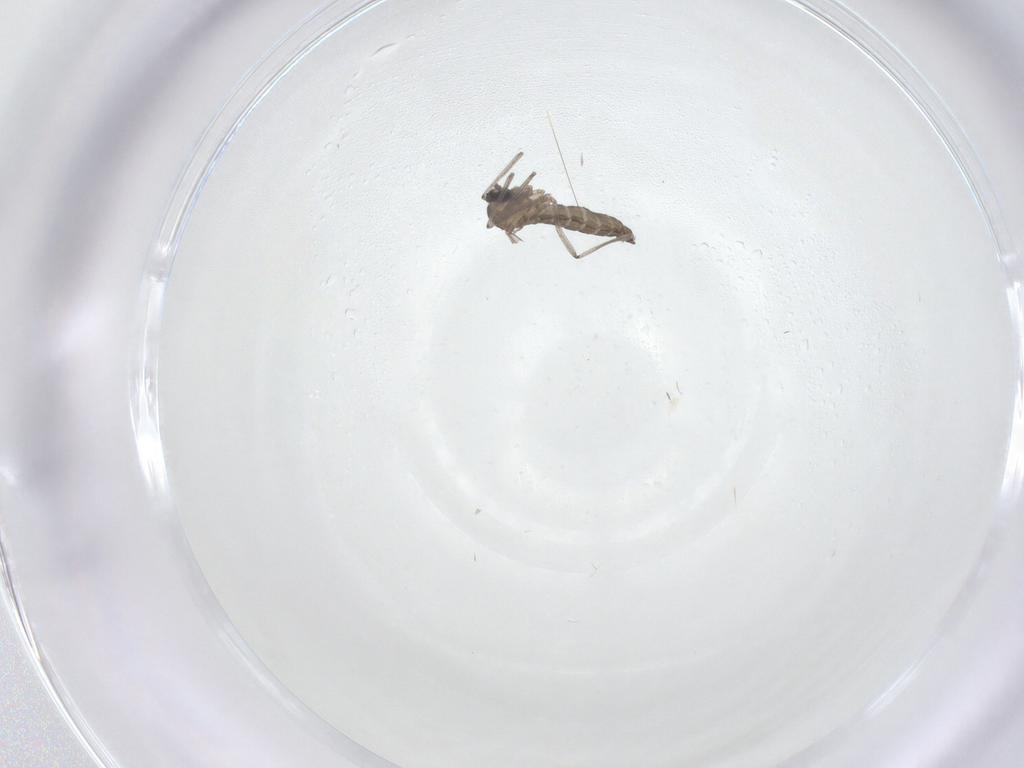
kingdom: Animalia
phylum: Arthropoda
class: Insecta
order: Diptera
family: Cecidomyiidae
